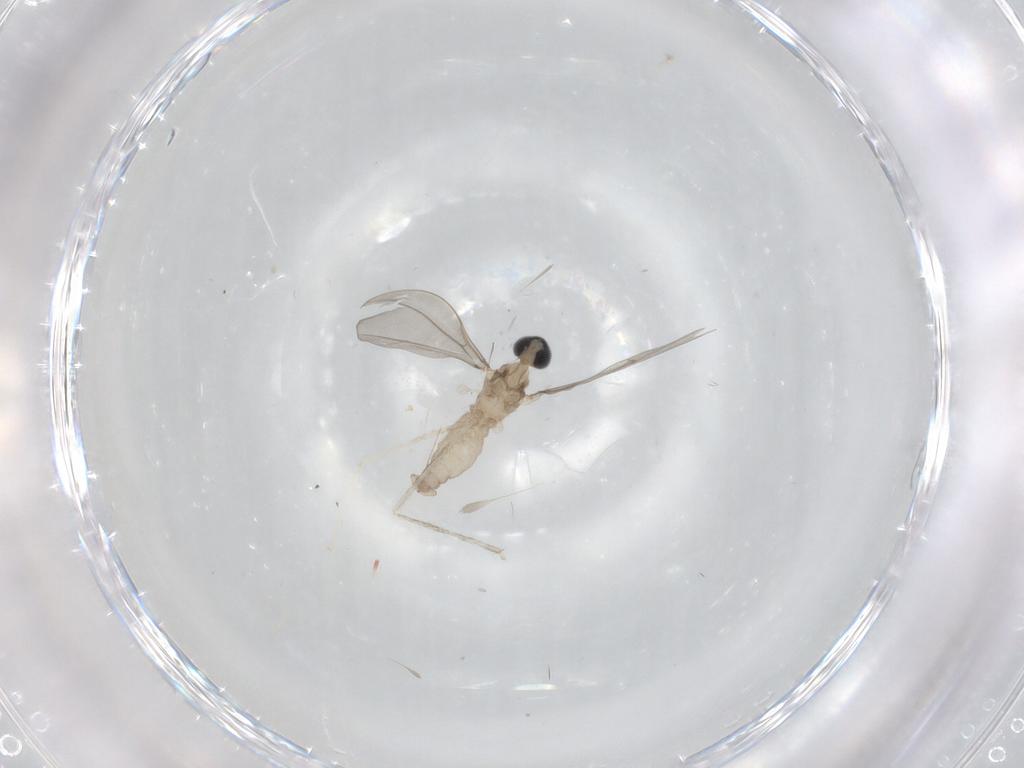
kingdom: Animalia
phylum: Arthropoda
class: Insecta
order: Diptera
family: Cecidomyiidae
